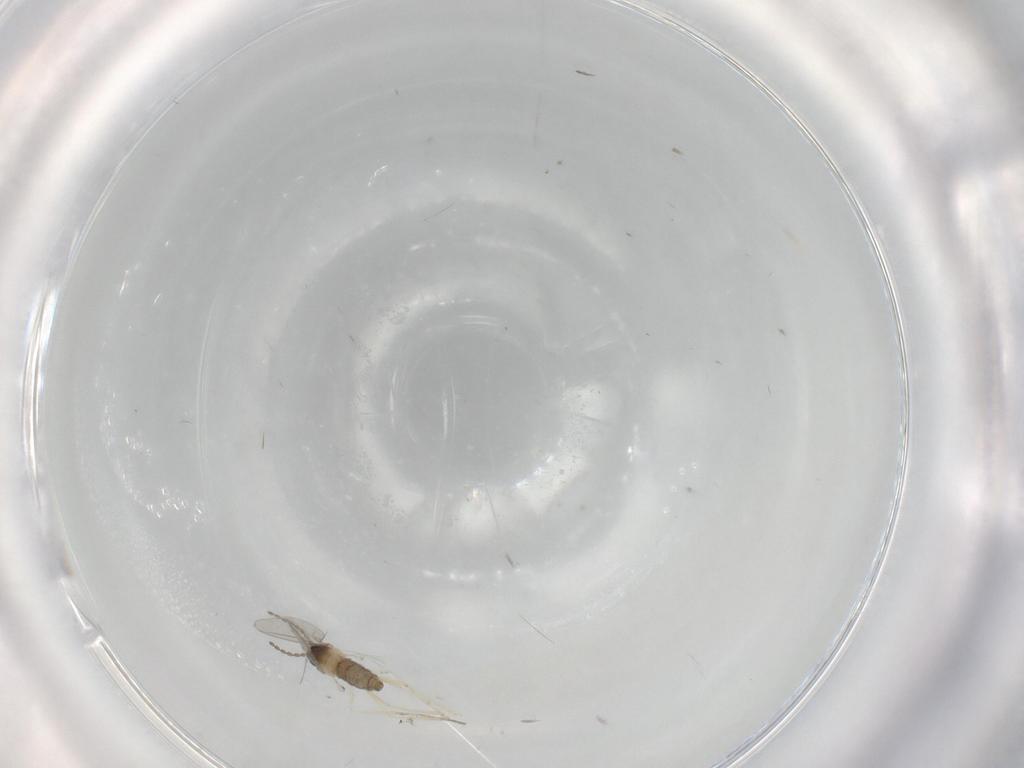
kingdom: Animalia
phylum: Arthropoda
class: Insecta
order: Diptera
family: Cecidomyiidae
